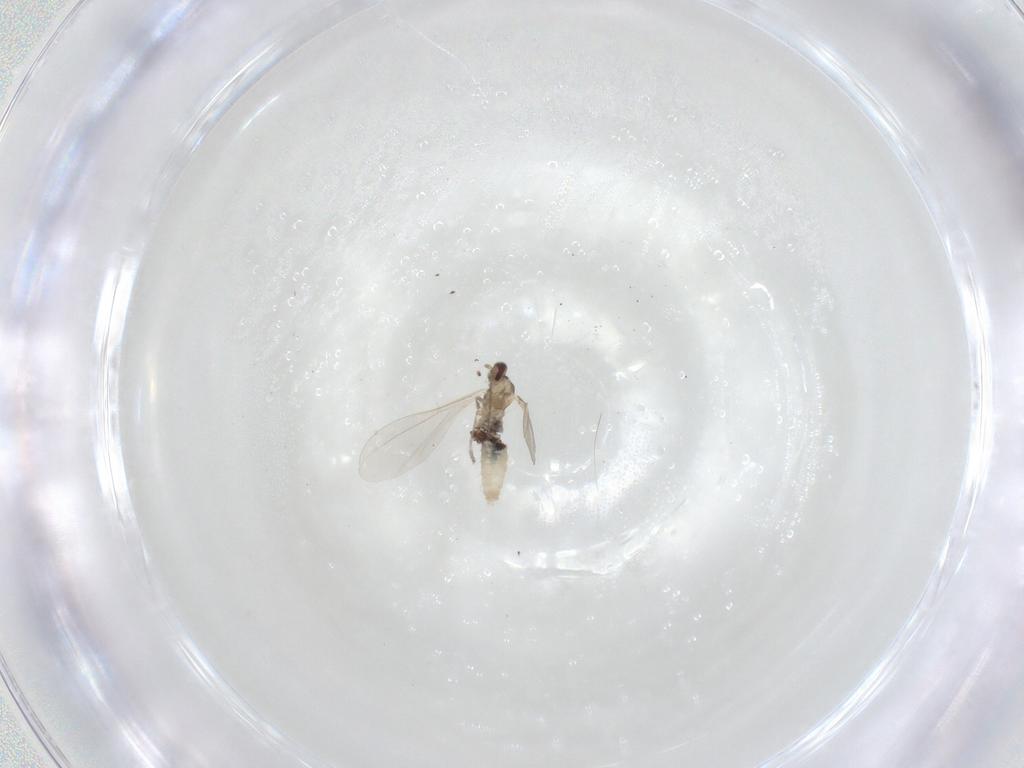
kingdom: Animalia
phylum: Arthropoda
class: Insecta
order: Diptera
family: Cecidomyiidae
